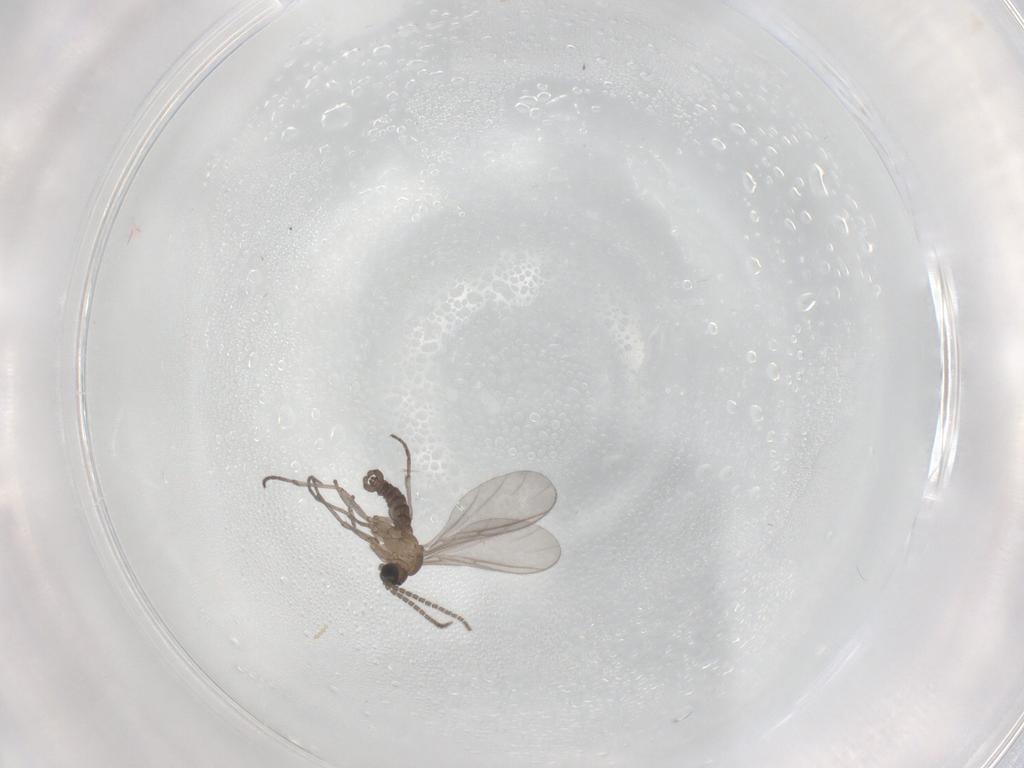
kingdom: Animalia
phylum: Arthropoda
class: Insecta
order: Diptera
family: Sciaridae
